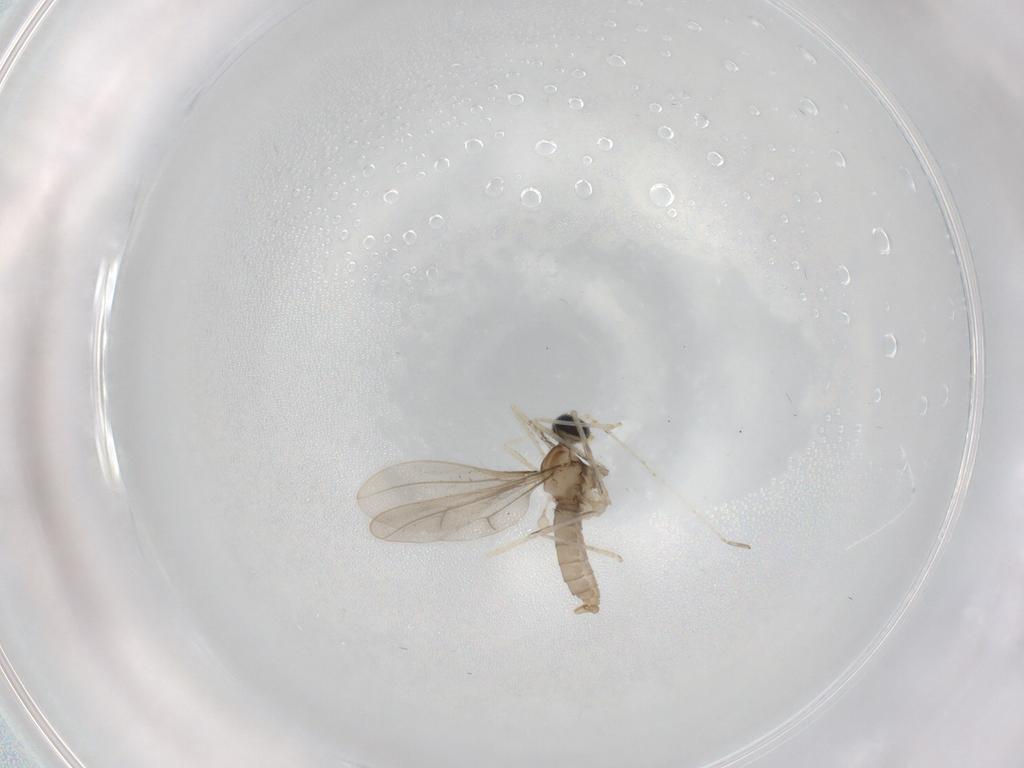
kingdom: Animalia
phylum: Arthropoda
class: Insecta
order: Diptera
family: Cecidomyiidae
